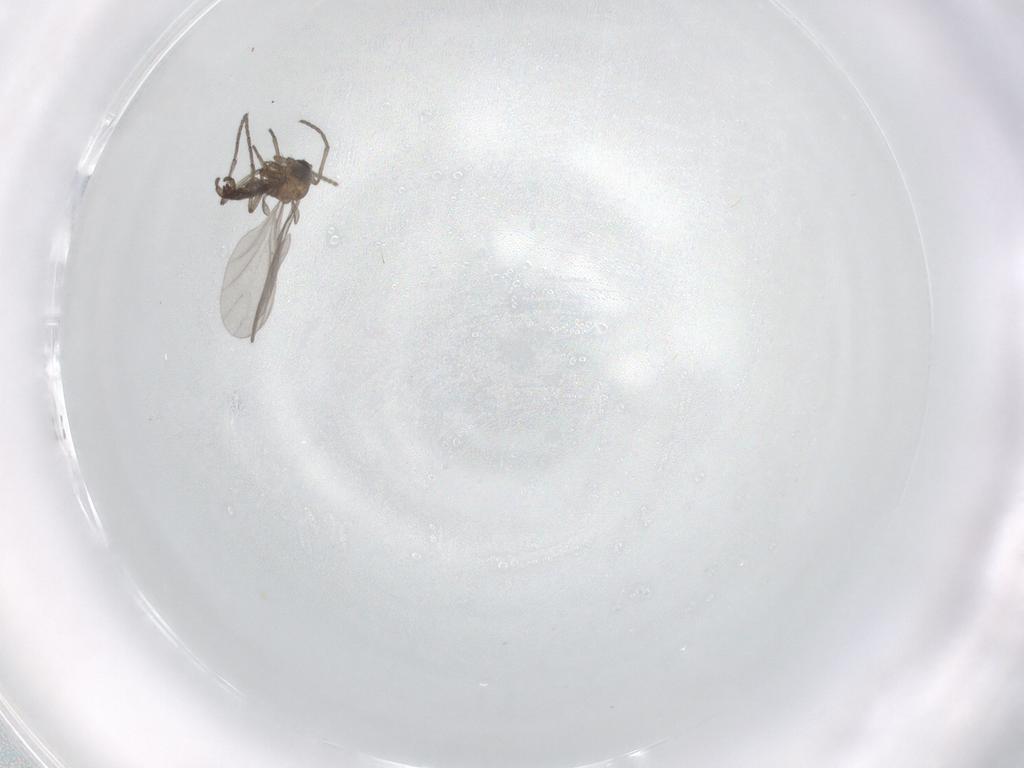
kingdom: Animalia
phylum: Arthropoda
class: Insecta
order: Diptera
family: Sciaridae
